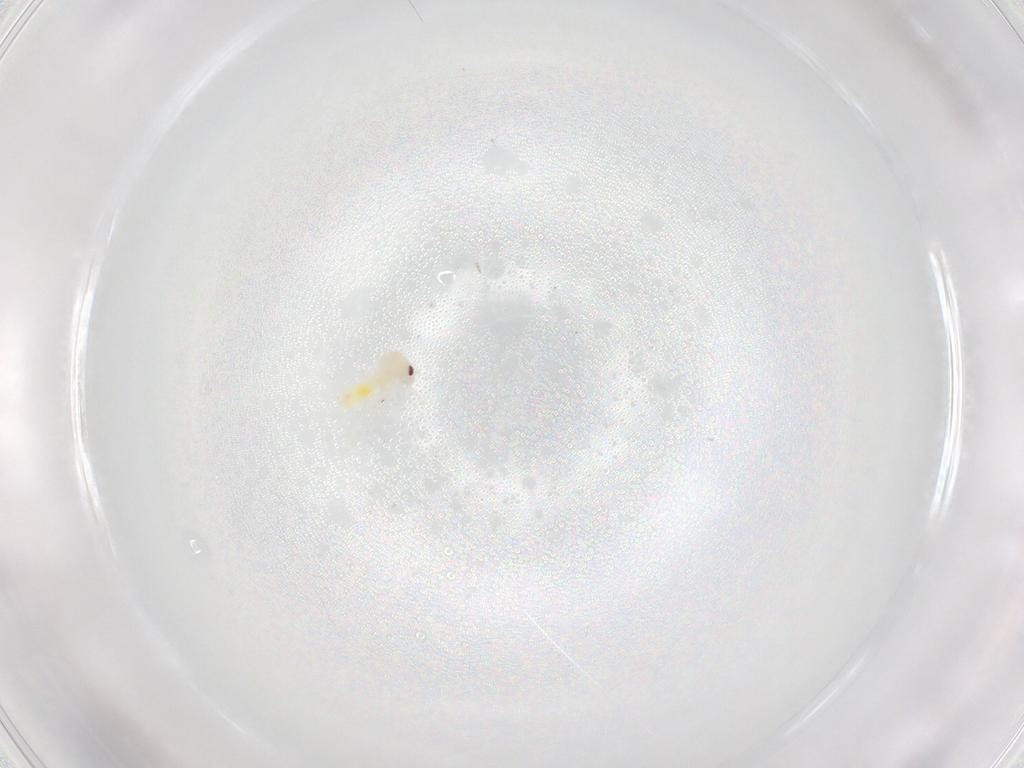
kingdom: Animalia
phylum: Arthropoda
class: Insecta
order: Hemiptera
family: Aleyrodidae
